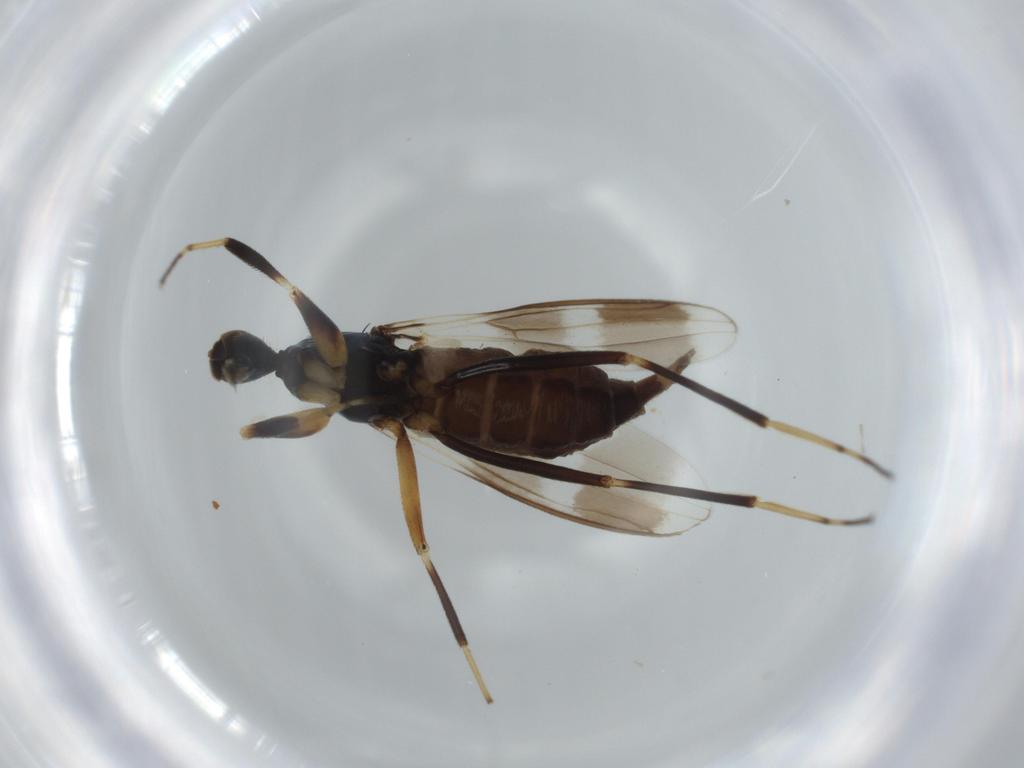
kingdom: Animalia
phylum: Arthropoda
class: Insecta
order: Diptera
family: Hybotidae
